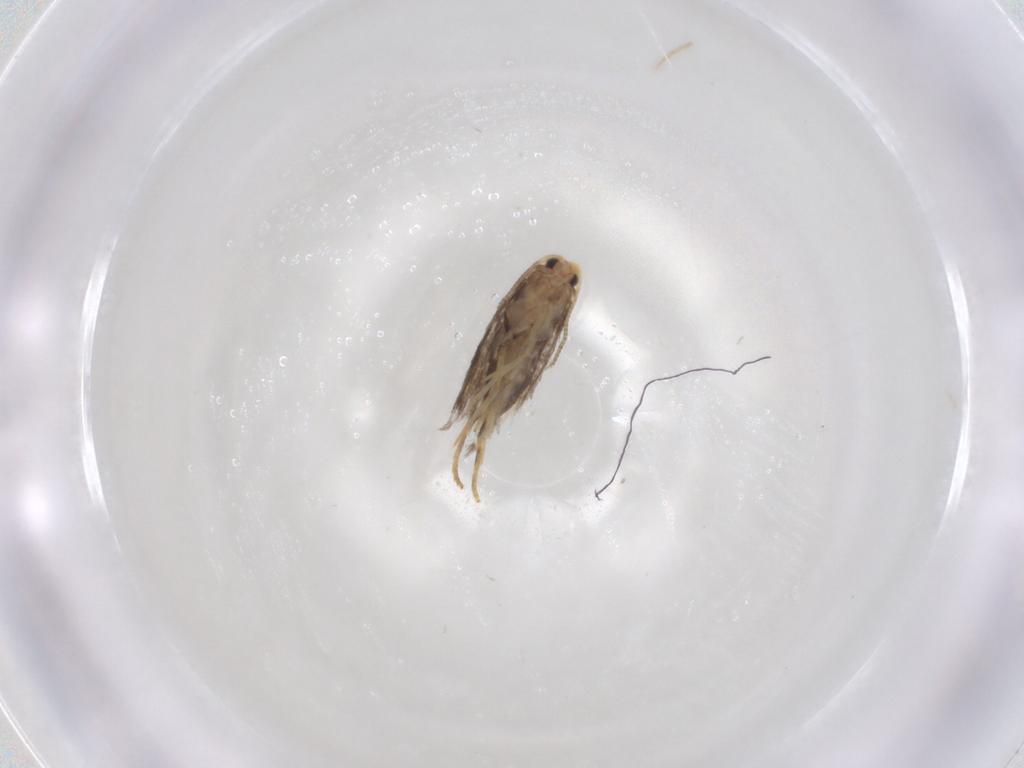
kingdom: Animalia
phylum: Arthropoda
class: Insecta
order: Lepidoptera
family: Nepticulidae
